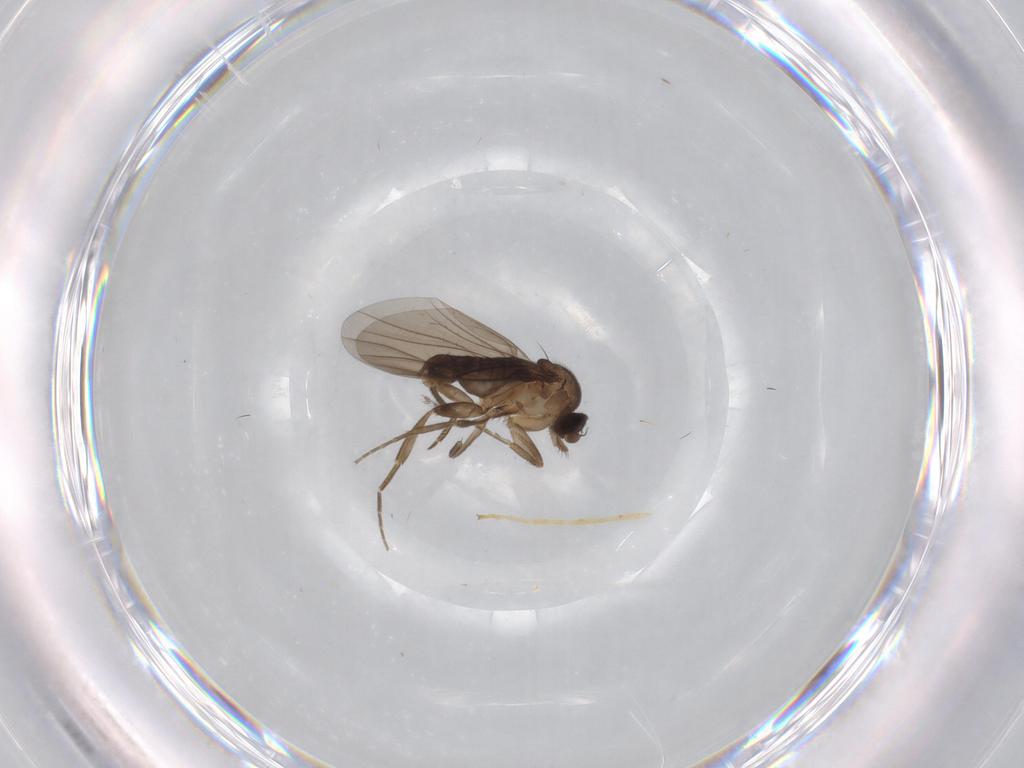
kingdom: Animalia
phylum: Arthropoda
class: Insecta
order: Diptera
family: Chironomidae
